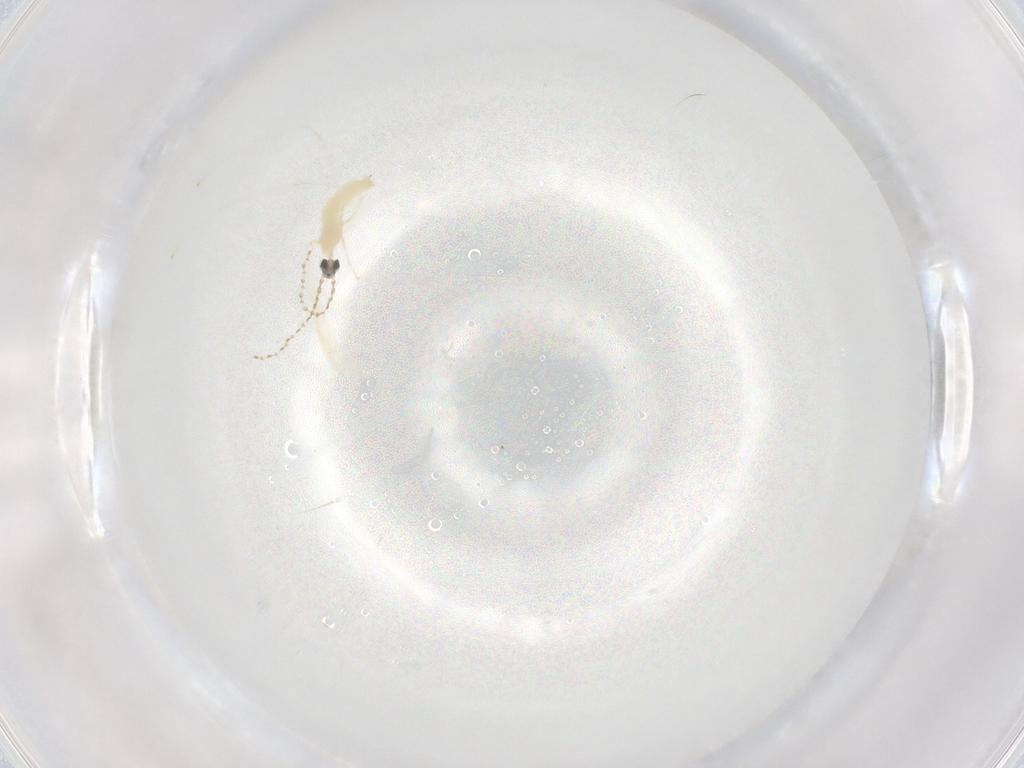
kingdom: Animalia
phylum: Arthropoda
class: Insecta
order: Diptera
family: Cecidomyiidae
